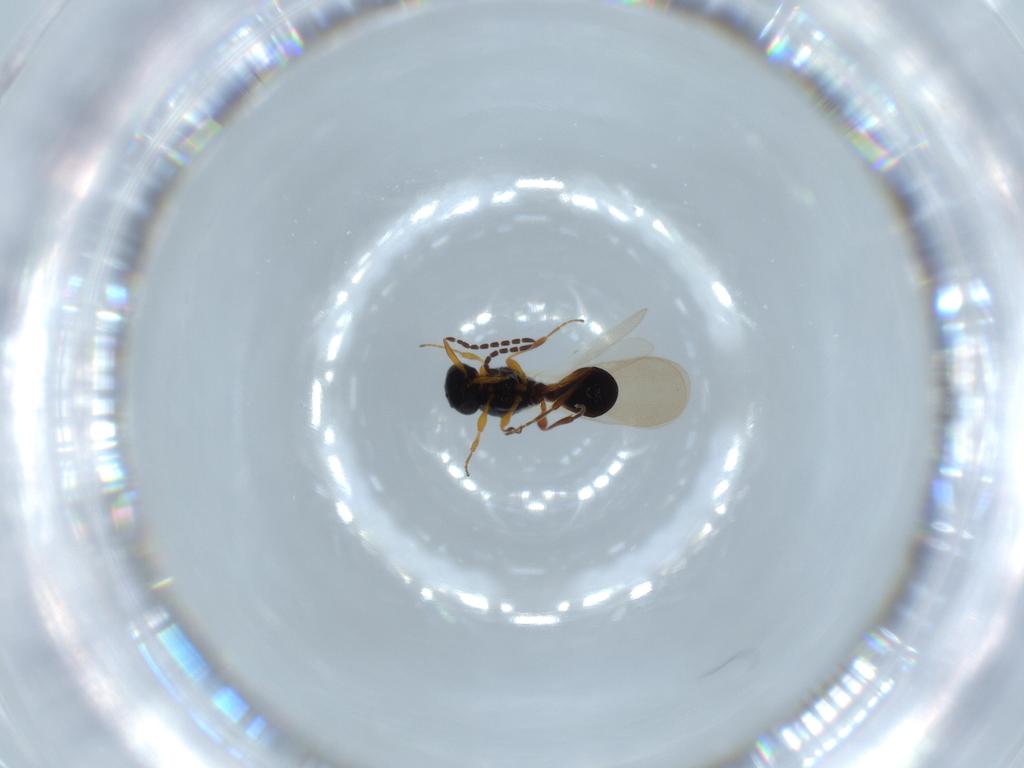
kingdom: Animalia
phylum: Arthropoda
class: Insecta
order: Hymenoptera
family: Platygastridae
